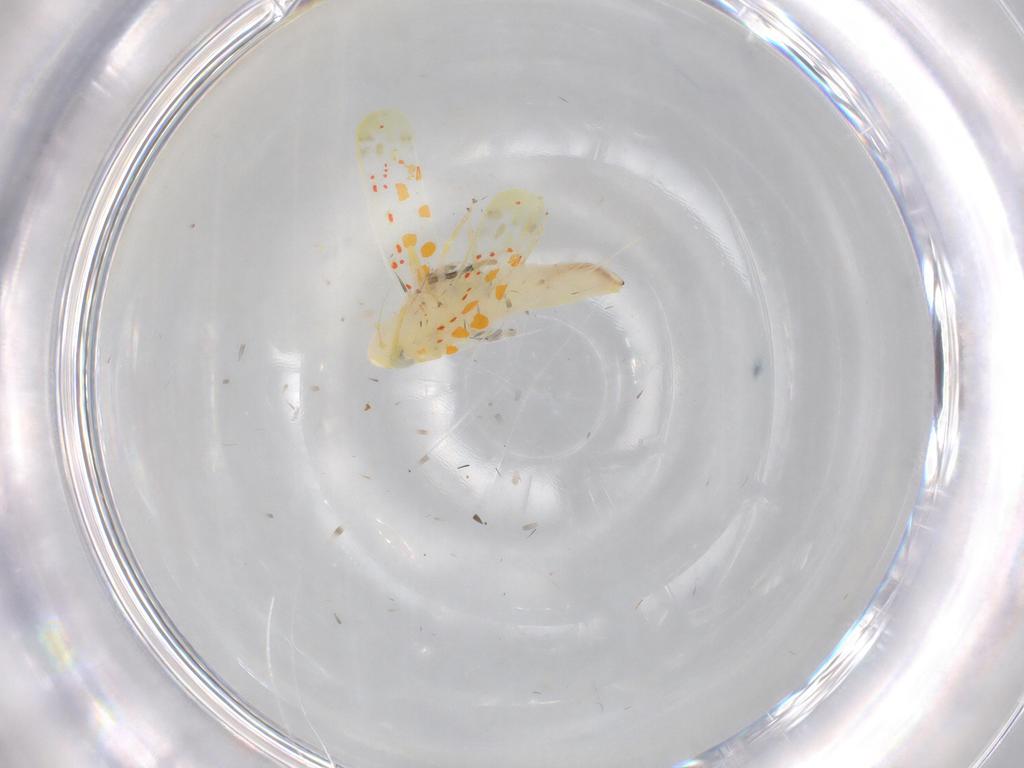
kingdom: Animalia
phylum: Arthropoda
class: Insecta
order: Hemiptera
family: Cicadellidae
